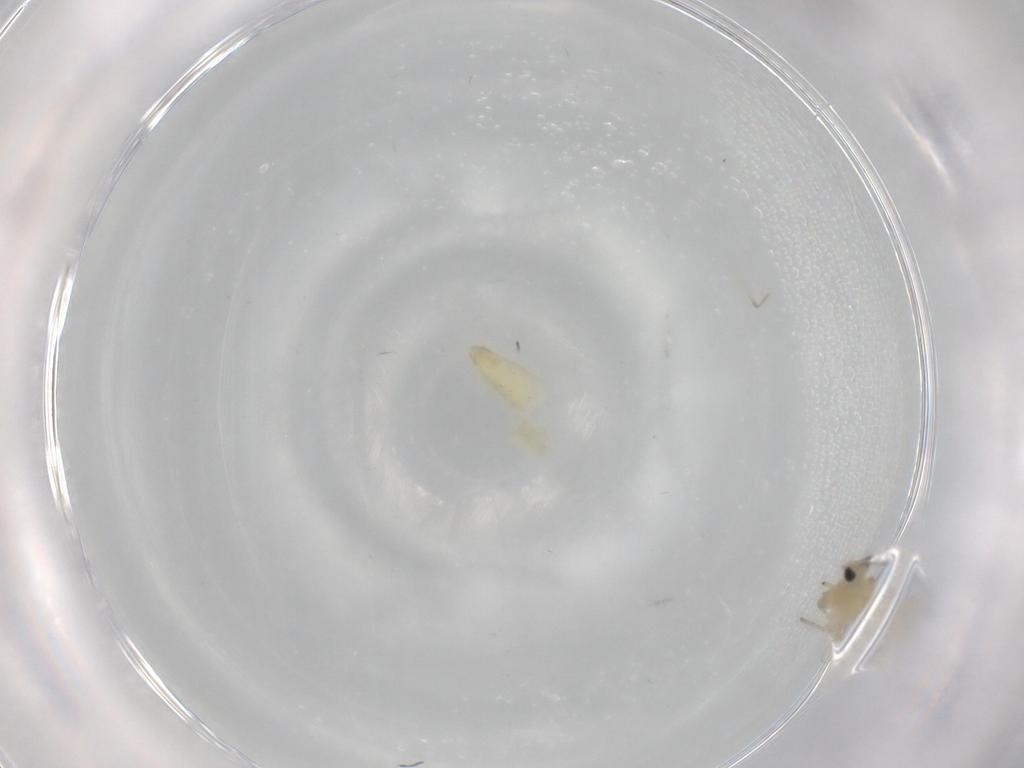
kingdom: Animalia
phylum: Arthropoda
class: Insecta
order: Diptera
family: Chironomidae
